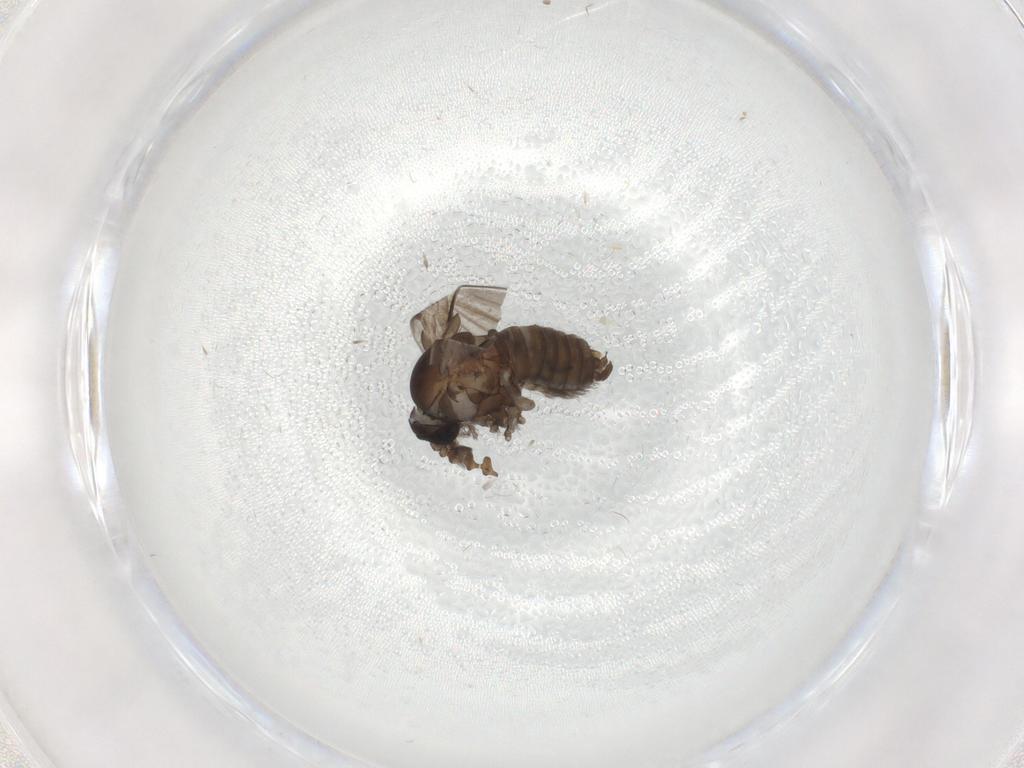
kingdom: Animalia
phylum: Arthropoda
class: Insecta
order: Diptera
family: Psychodidae
